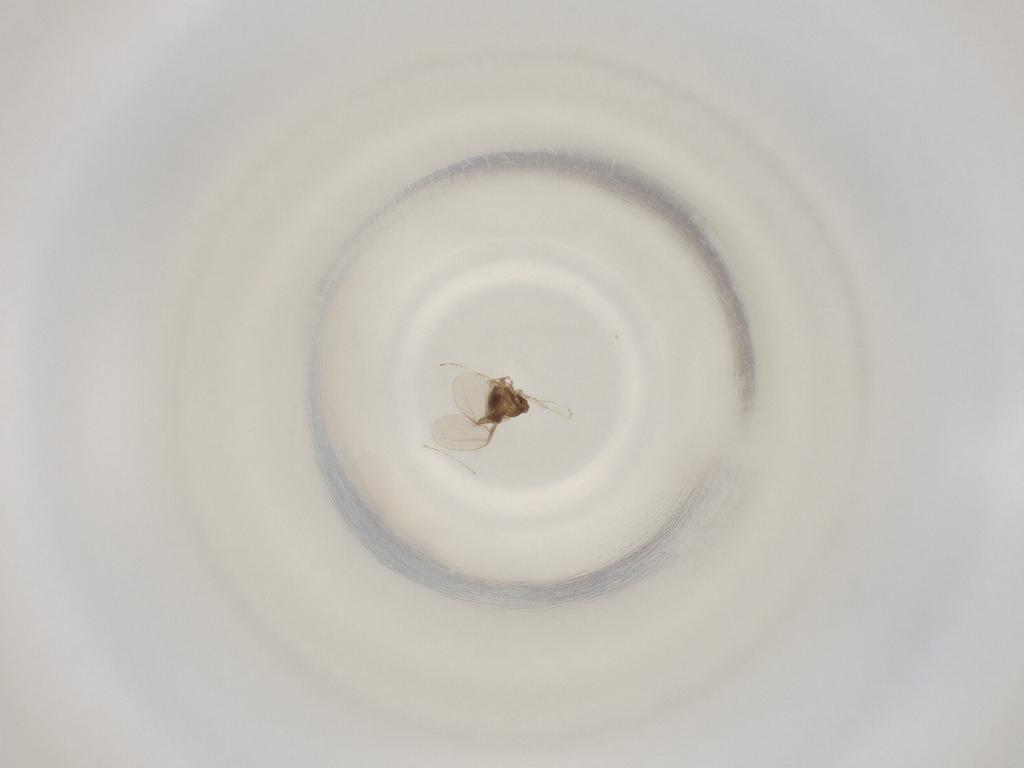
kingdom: Animalia
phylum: Arthropoda
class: Insecta
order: Diptera
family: Cecidomyiidae
